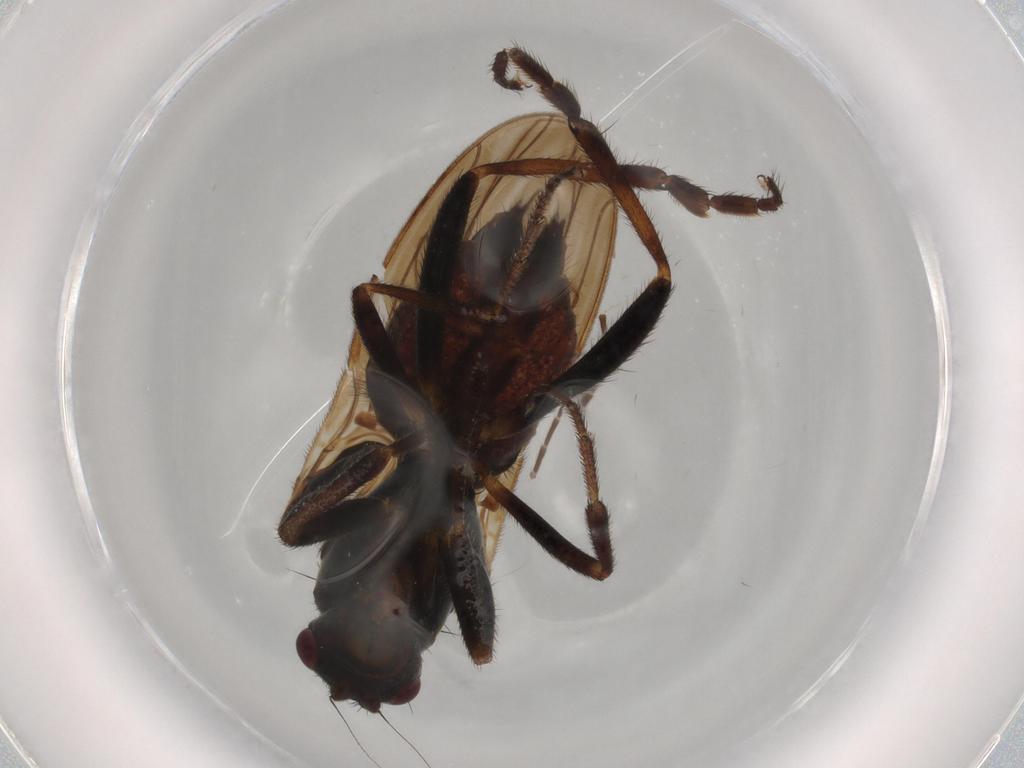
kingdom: Animalia
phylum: Arthropoda
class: Insecta
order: Diptera
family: Sphaeroceridae
